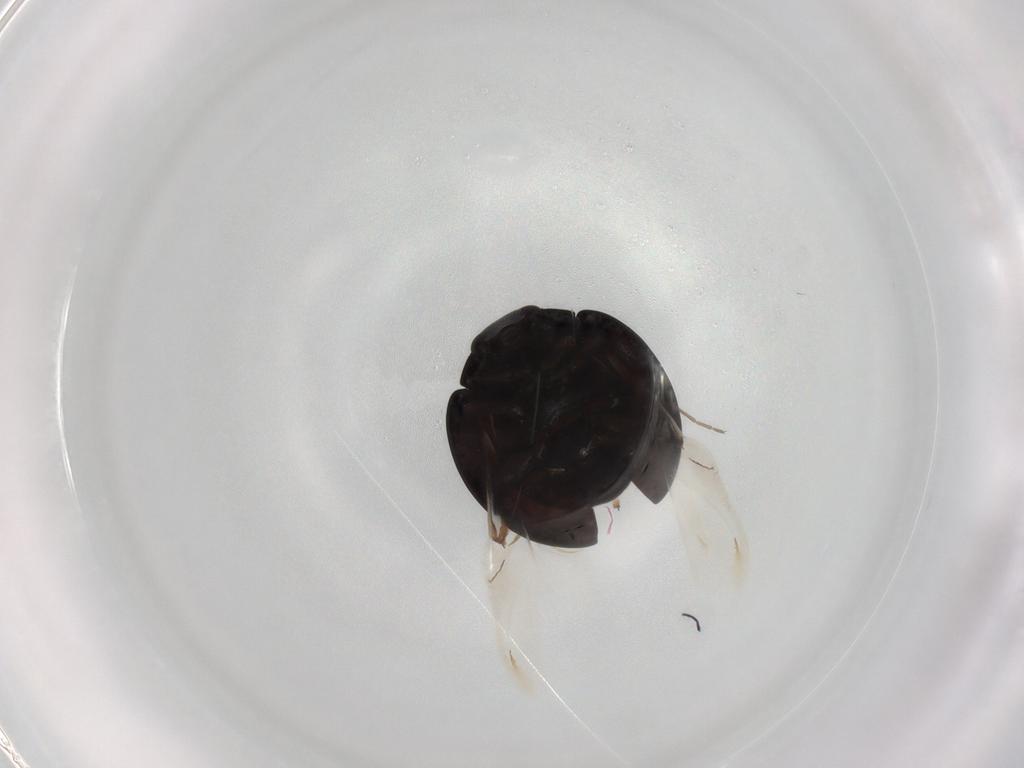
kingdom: Animalia
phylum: Arthropoda
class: Insecta
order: Coleoptera
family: Coccinellidae
